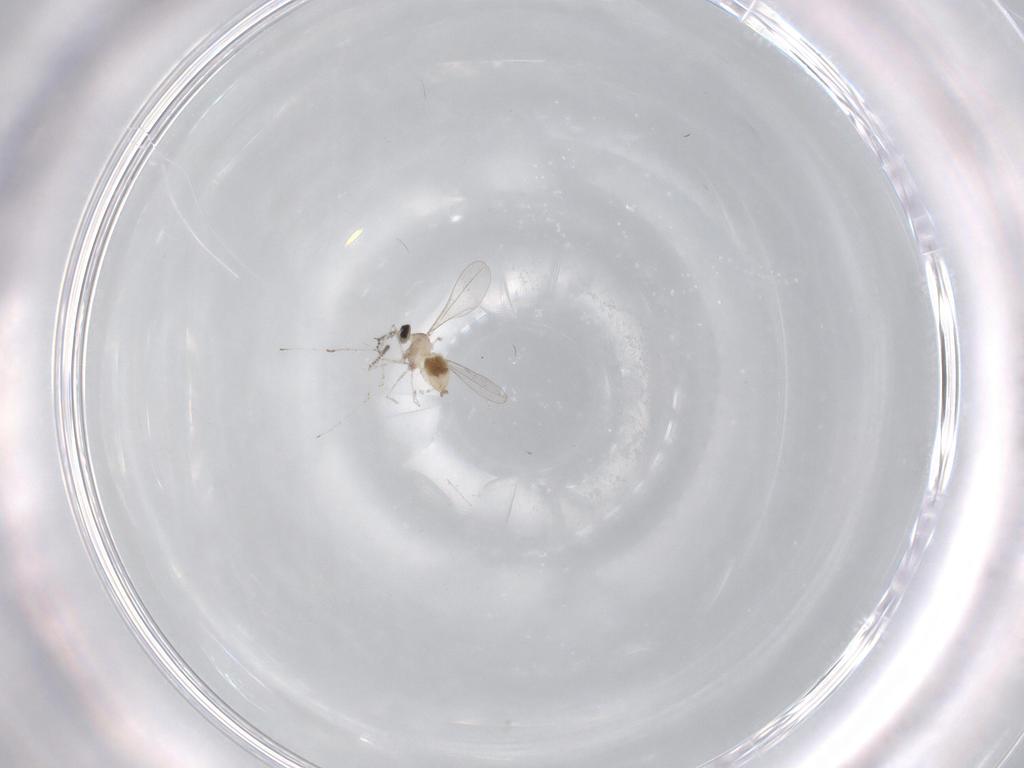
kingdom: Animalia
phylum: Arthropoda
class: Insecta
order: Diptera
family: Cecidomyiidae
